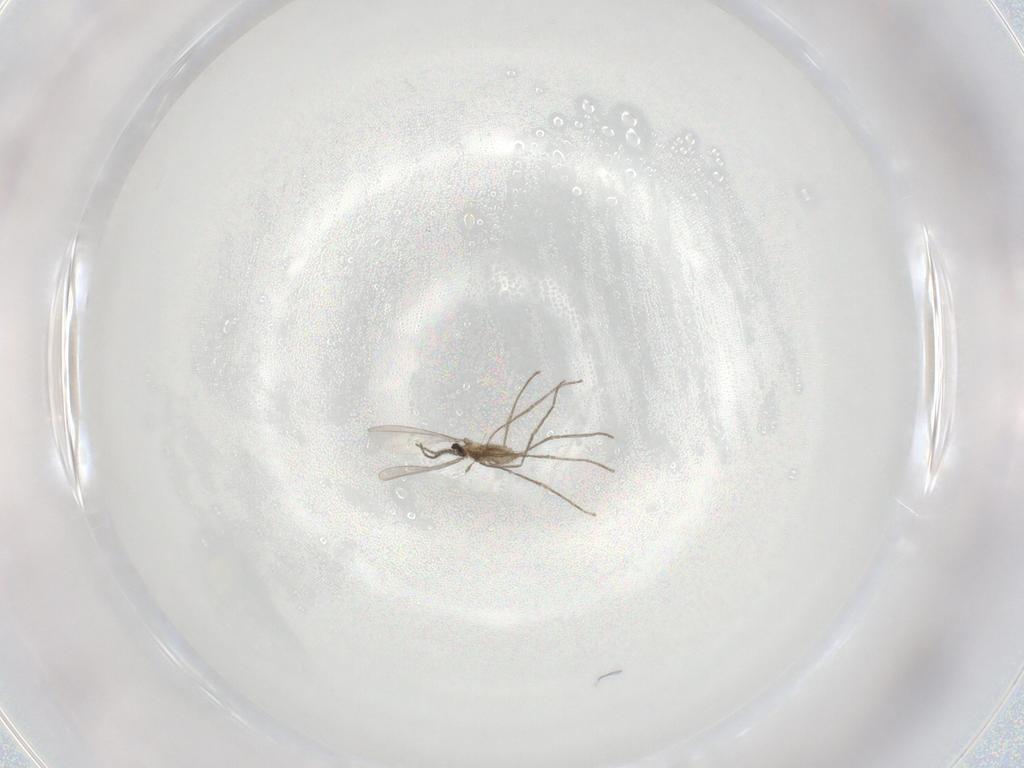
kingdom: Animalia
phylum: Arthropoda
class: Insecta
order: Diptera
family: Cecidomyiidae
